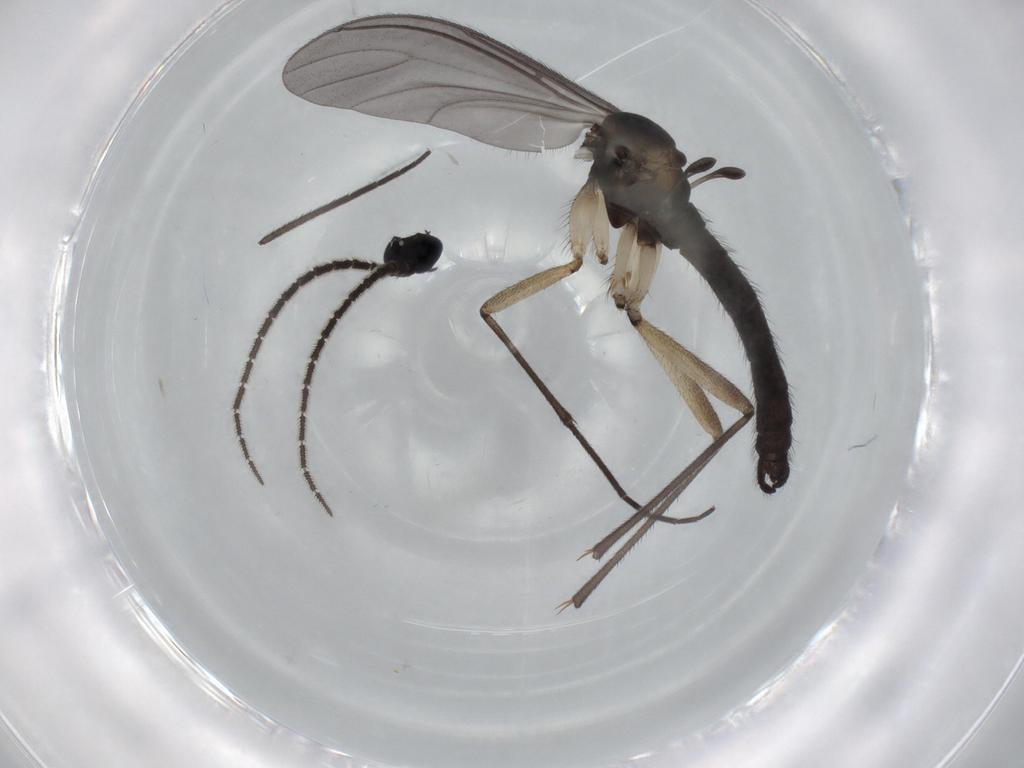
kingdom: Animalia
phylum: Arthropoda
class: Insecta
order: Diptera
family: Sciaridae
